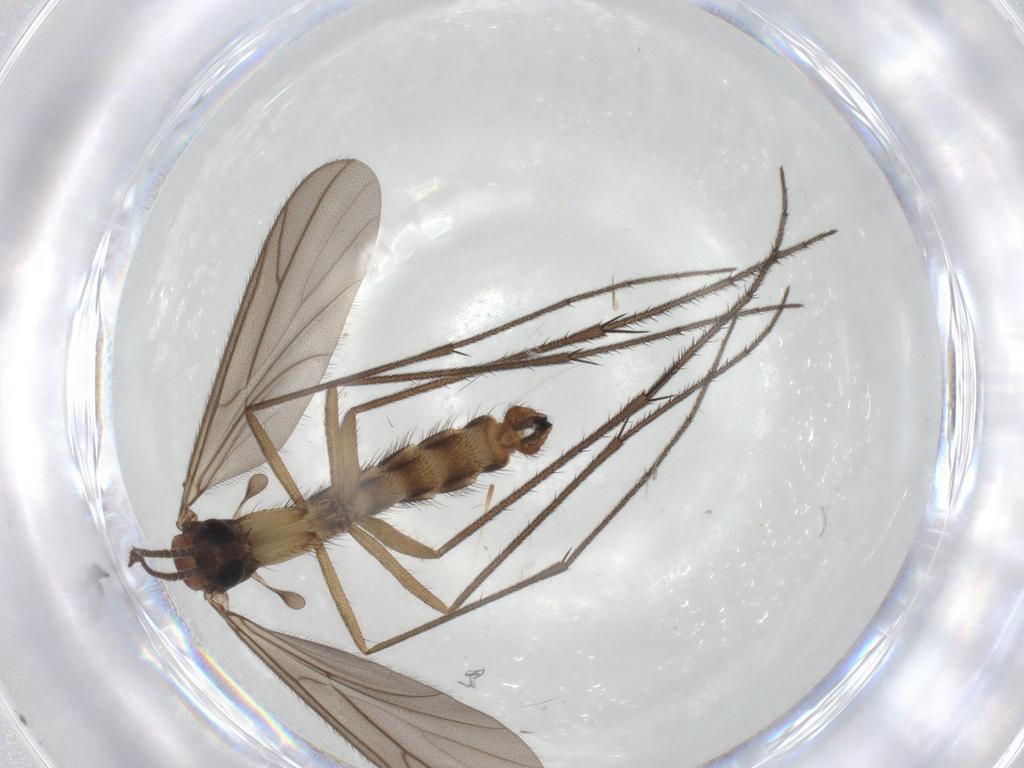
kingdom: Animalia
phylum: Arthropoda
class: Insecta
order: Diptera
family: Ditomyiidae
